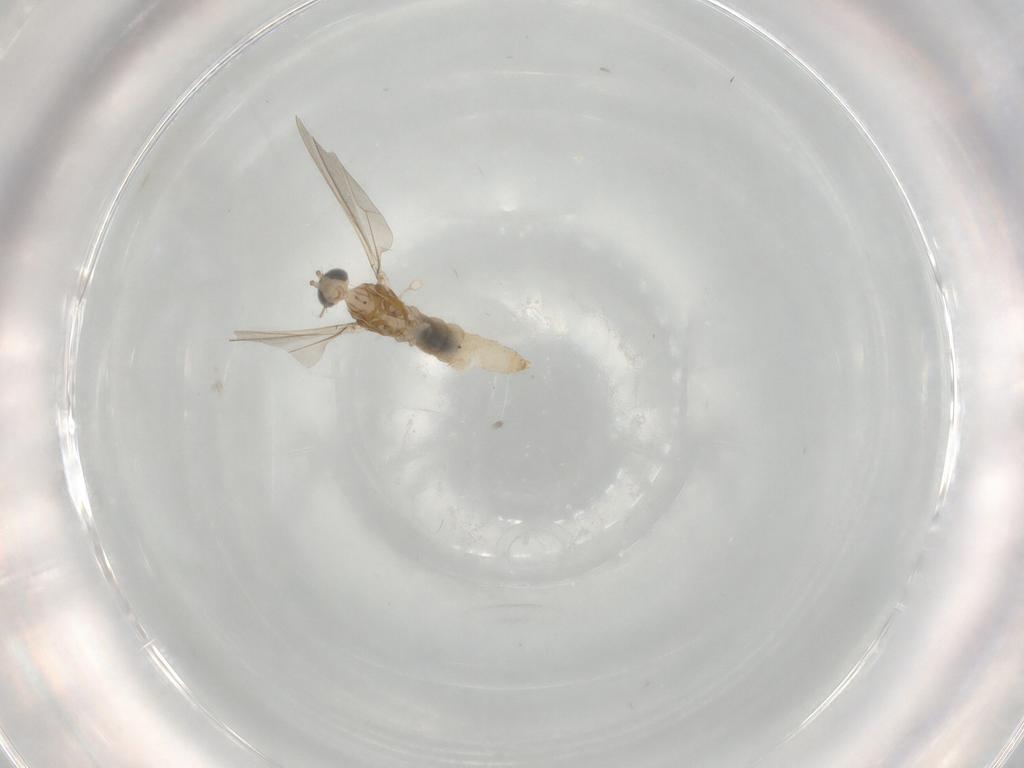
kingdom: Animalia
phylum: Arthropoda
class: Insecta
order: Diptera
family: Cecidomyiidae
